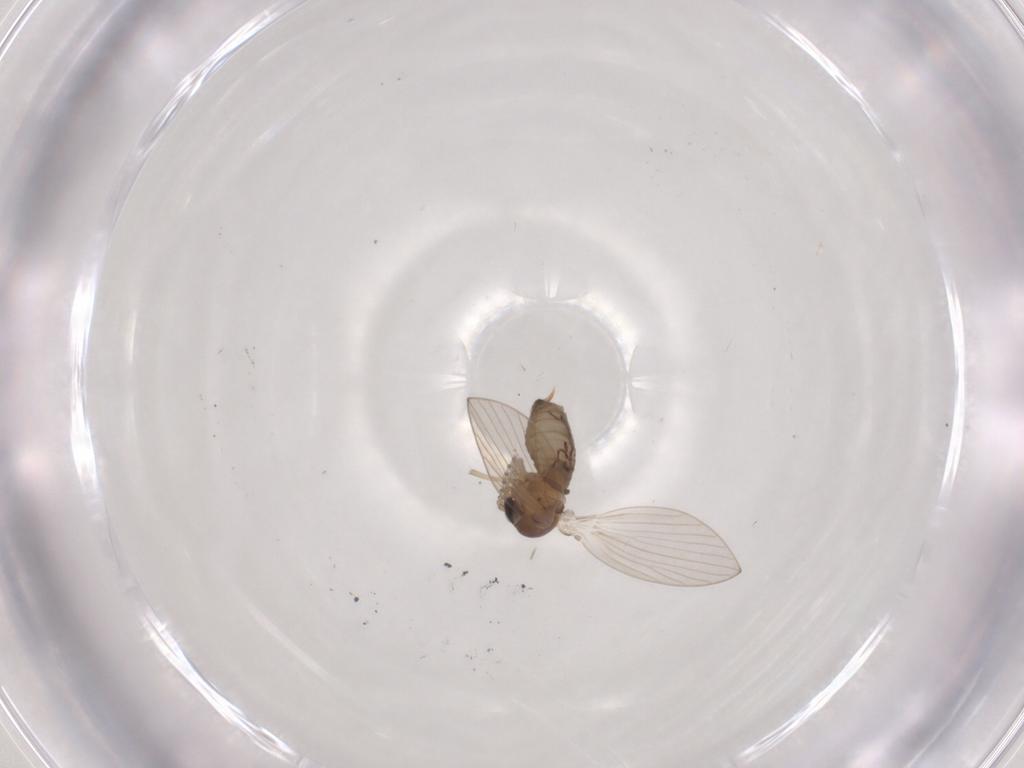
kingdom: Animalia
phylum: Arthropoda
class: Insecta
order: Diptera
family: Psychodidae
